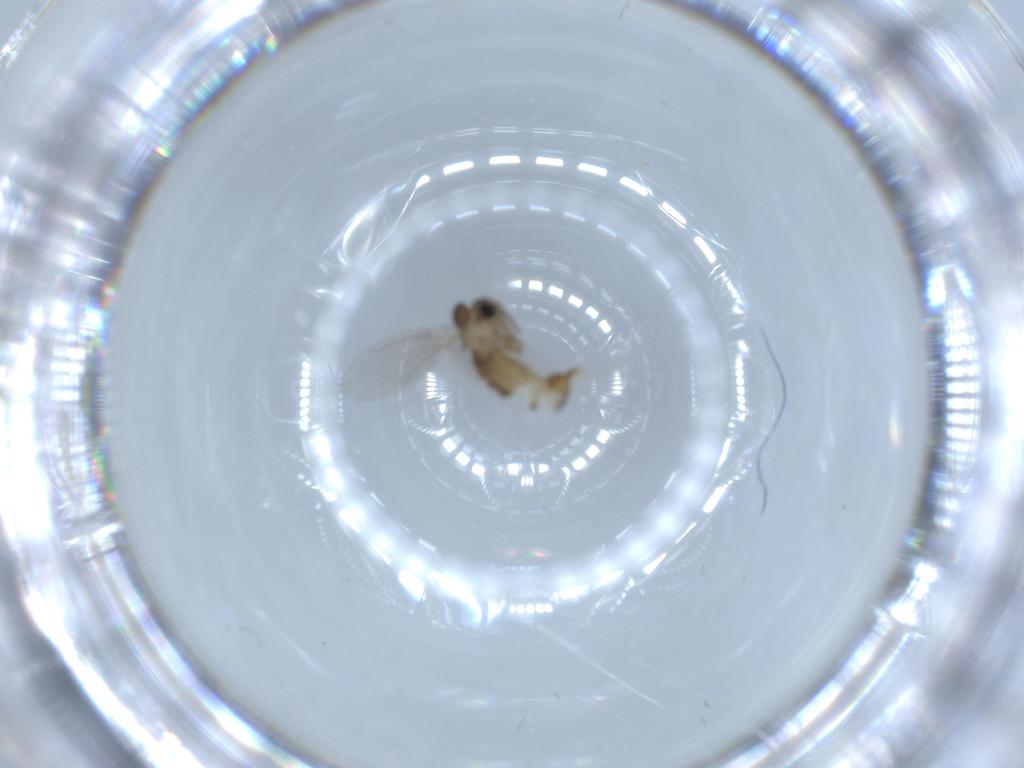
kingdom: Animalia
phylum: Arthropoda
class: Insecta
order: Diptera
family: Psychodidae
